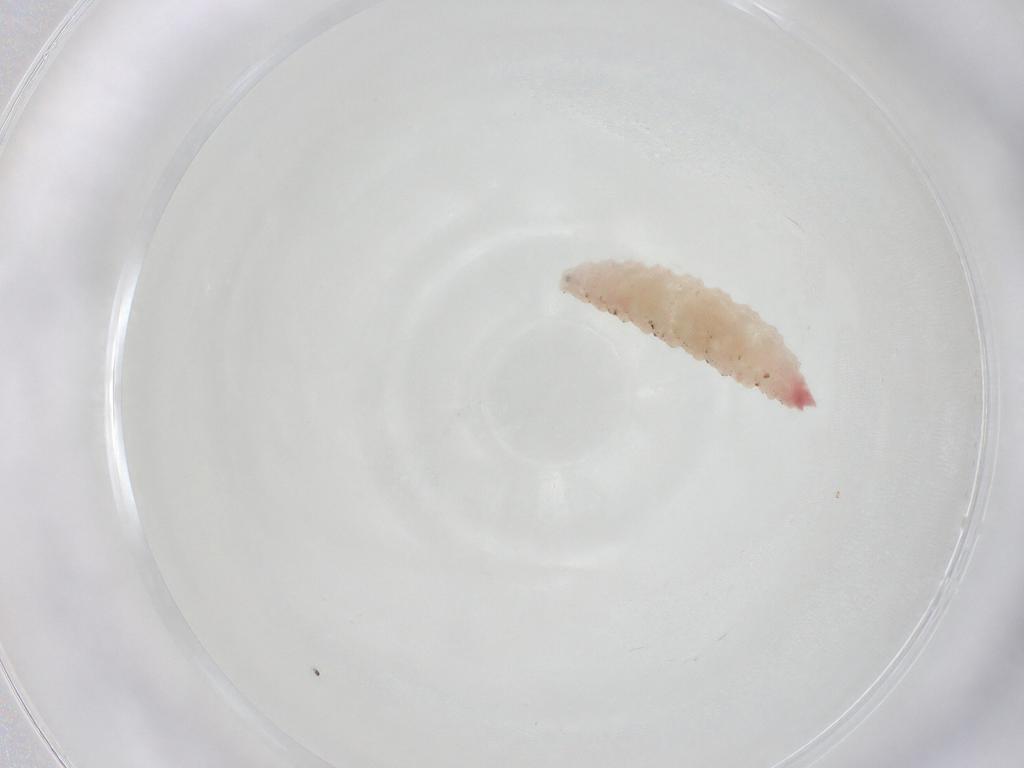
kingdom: Animalia
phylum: Arthropoda
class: Insecta
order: Diptera
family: Cecidomyiidae
